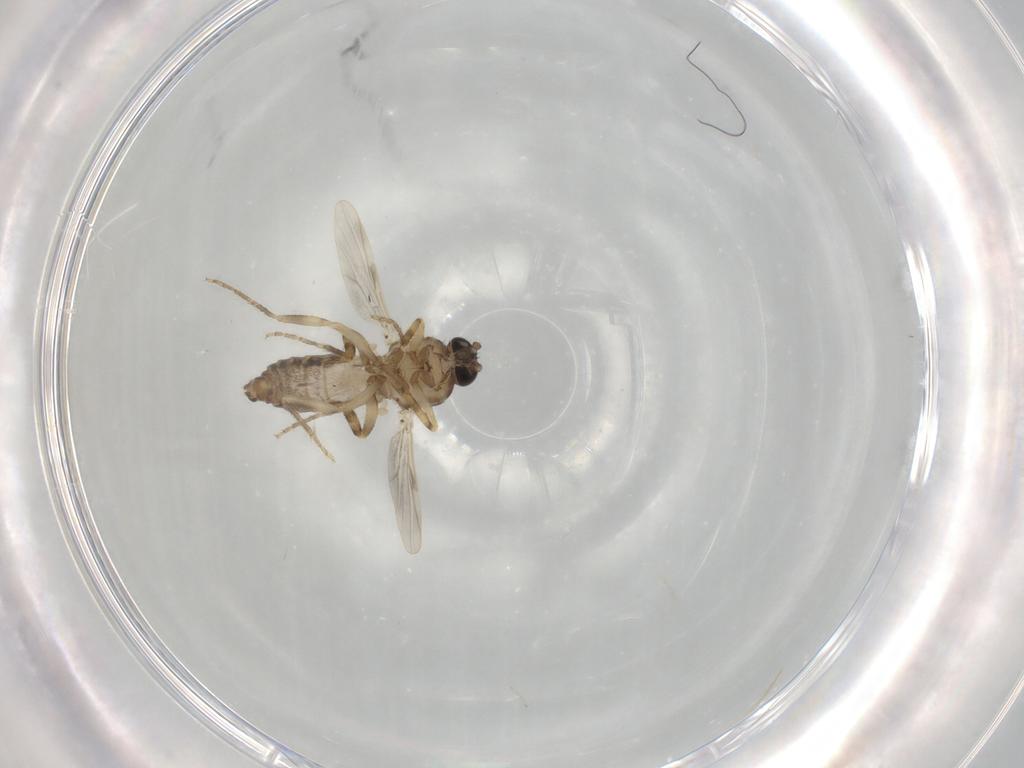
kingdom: Animalia
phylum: Arthropoda
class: Insecta
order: Diptera
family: Ceratopogonidae
